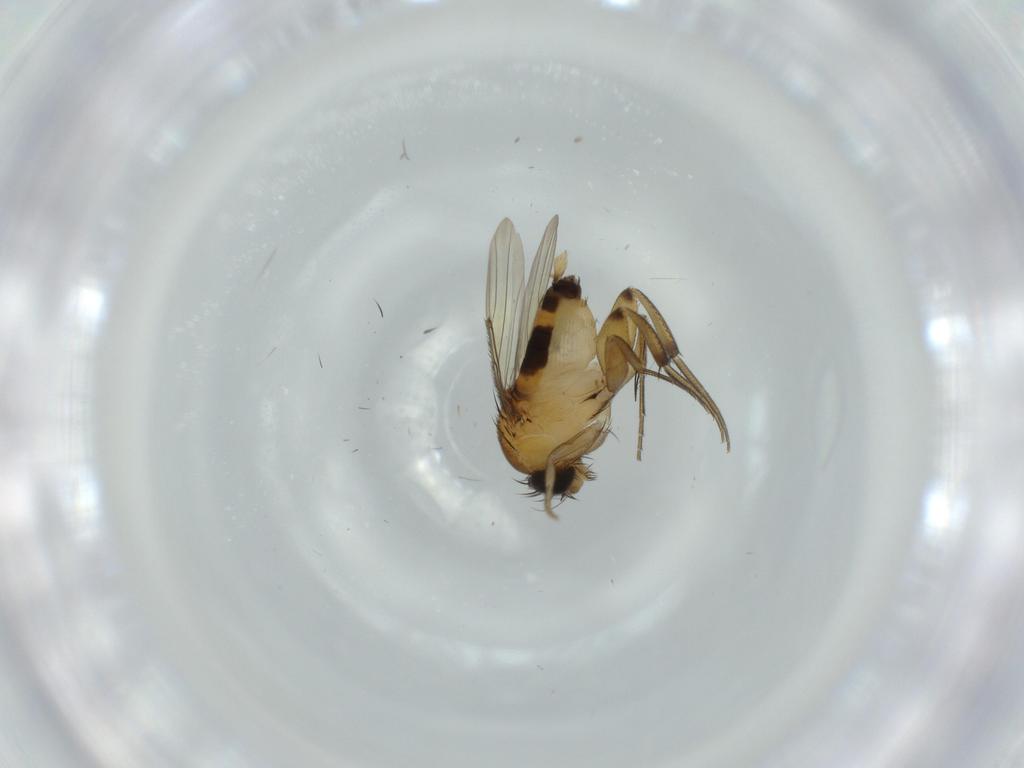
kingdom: Animalia
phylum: Arthropoda
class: Insecta
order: Diptera
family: Phoridae
